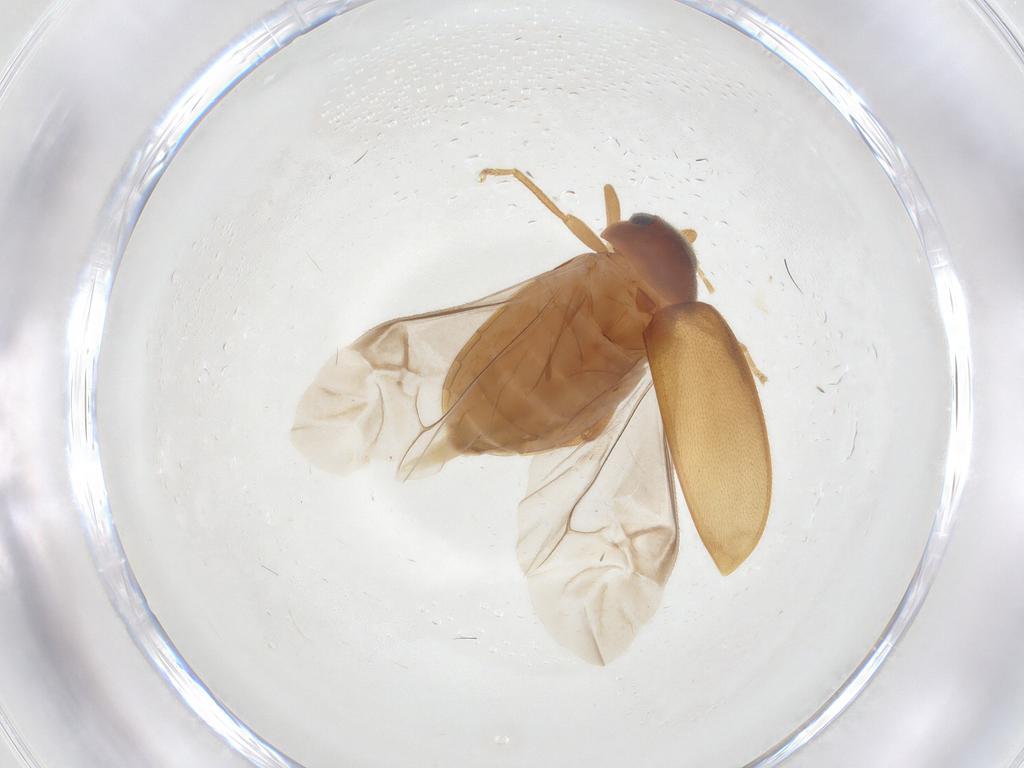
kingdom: Animalia
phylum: Arthropoda
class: Insecta
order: Coleoptera
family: Scirtidae
